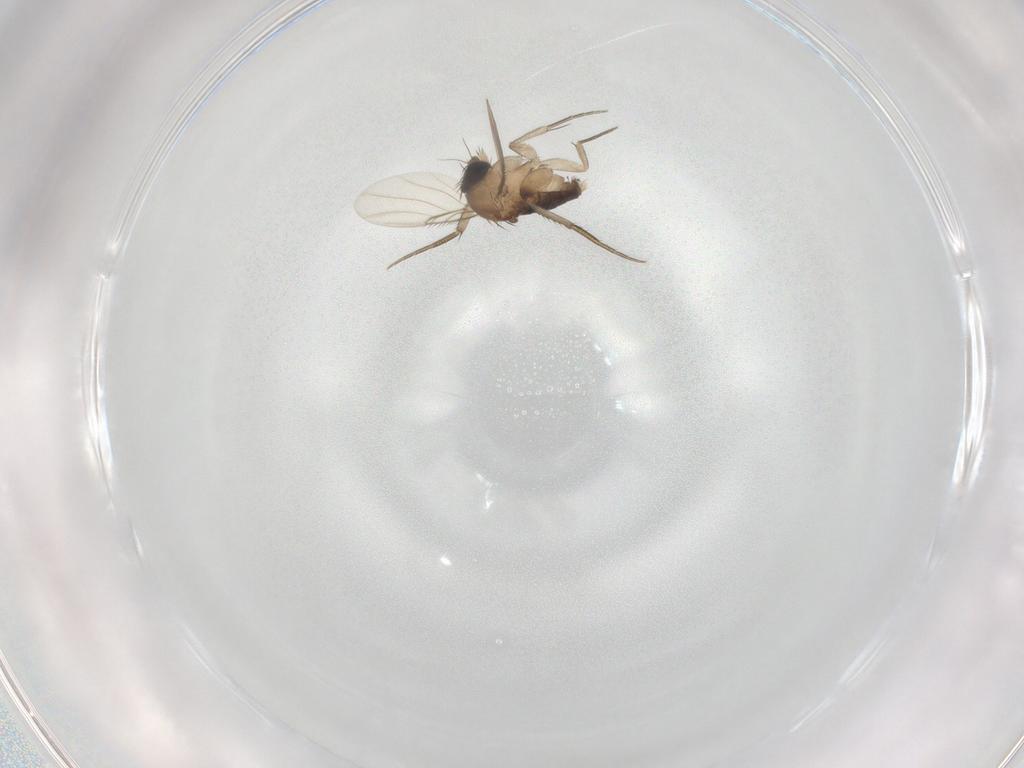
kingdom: Animalia
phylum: Arthropoda
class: Insecta
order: Diptera
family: Phoridae
